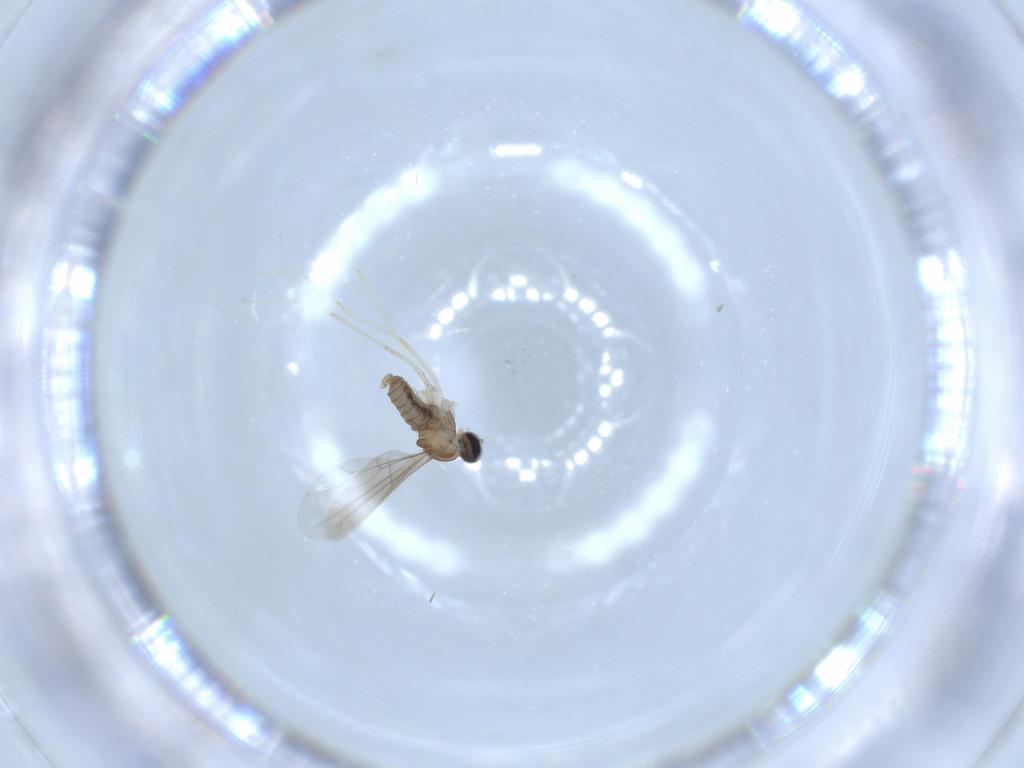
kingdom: Animalia
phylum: Arthropoda
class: Insecta
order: Diptera
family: Cecidomyiidae
